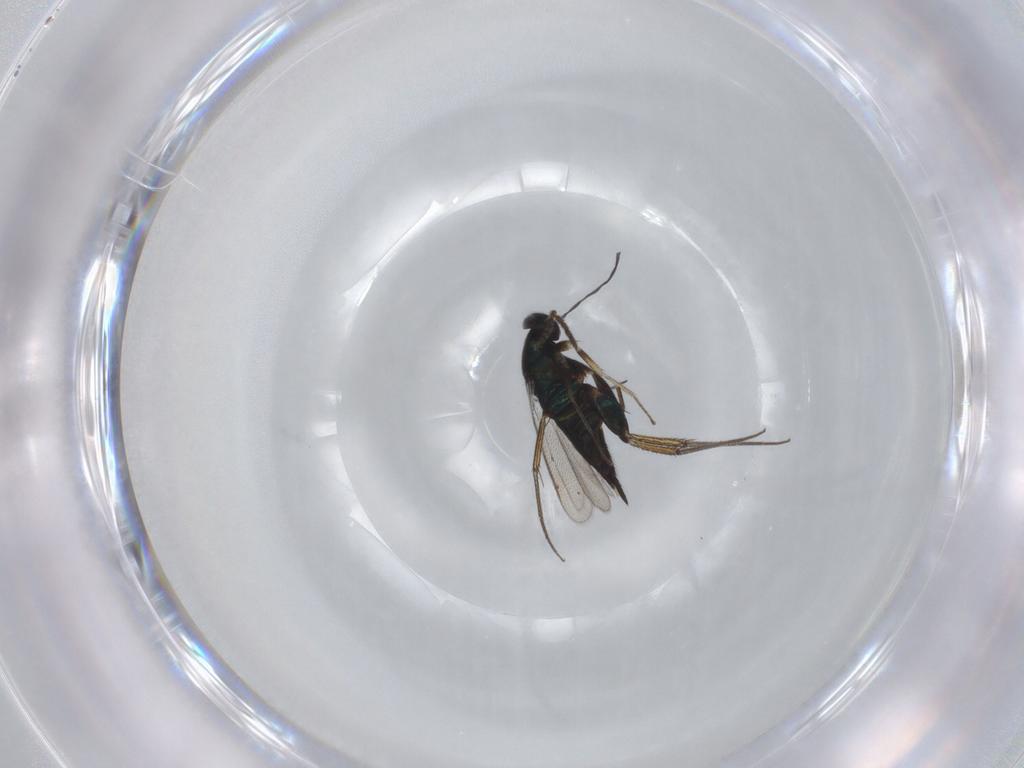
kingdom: Animalia
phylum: Arthropoda
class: Insecta
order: Hymenoptera
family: Eulophidae
